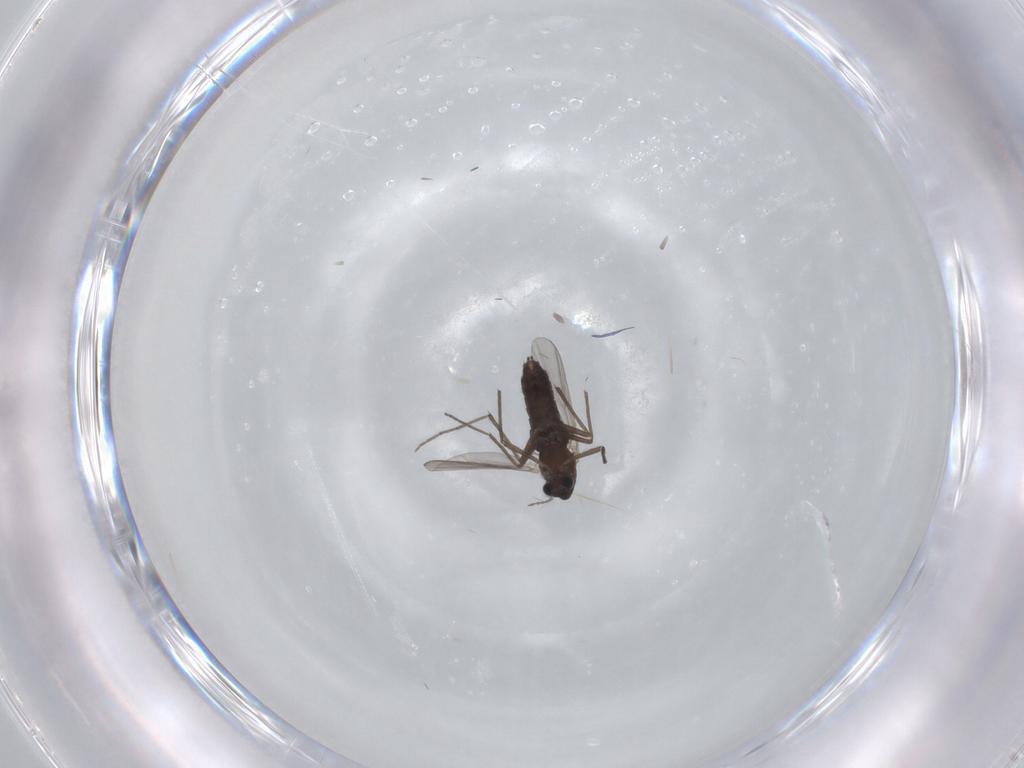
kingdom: Animalia
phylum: Arthropoda
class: Insecta
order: Diptera
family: Chironomidae
